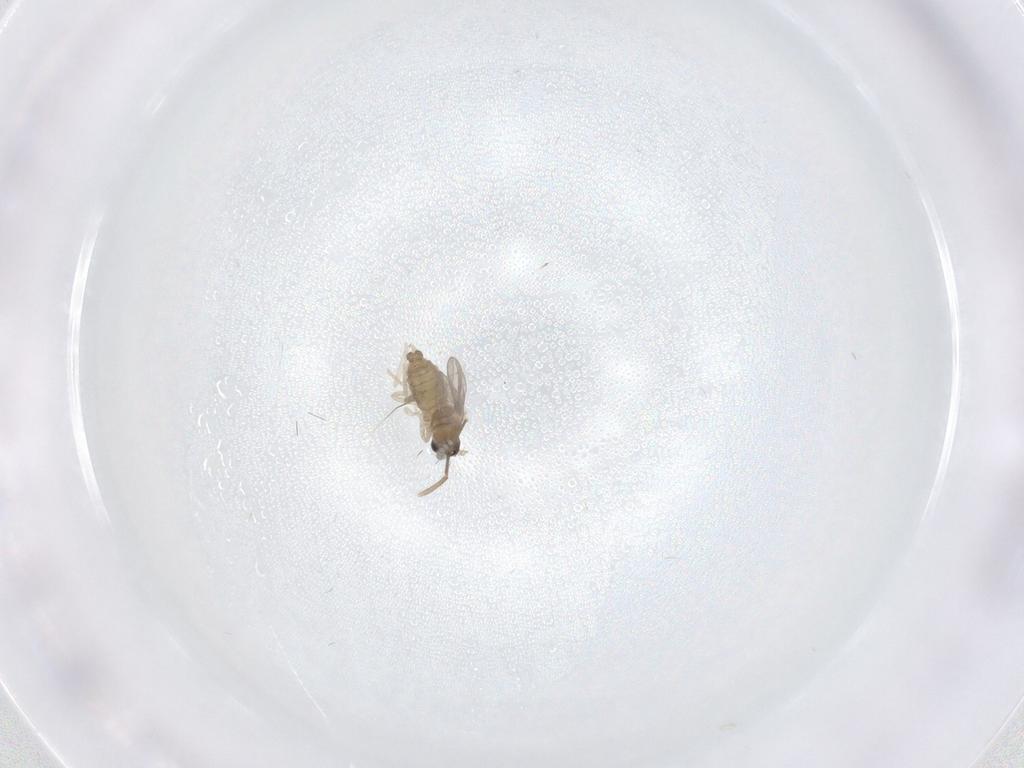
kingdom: Animalia
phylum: Arthropoda
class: Insecta
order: Diptera
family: Cecidomyiidae
